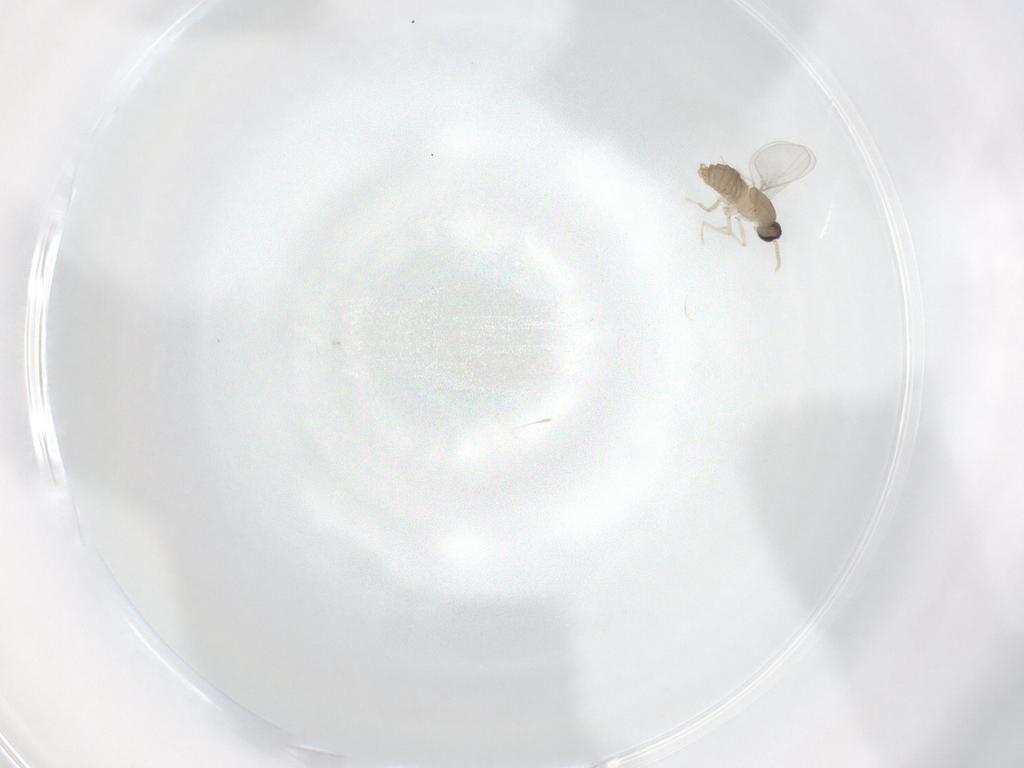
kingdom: Animalia
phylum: Arthropoda
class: Insecta
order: Diptera
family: Cecidomyiidae
